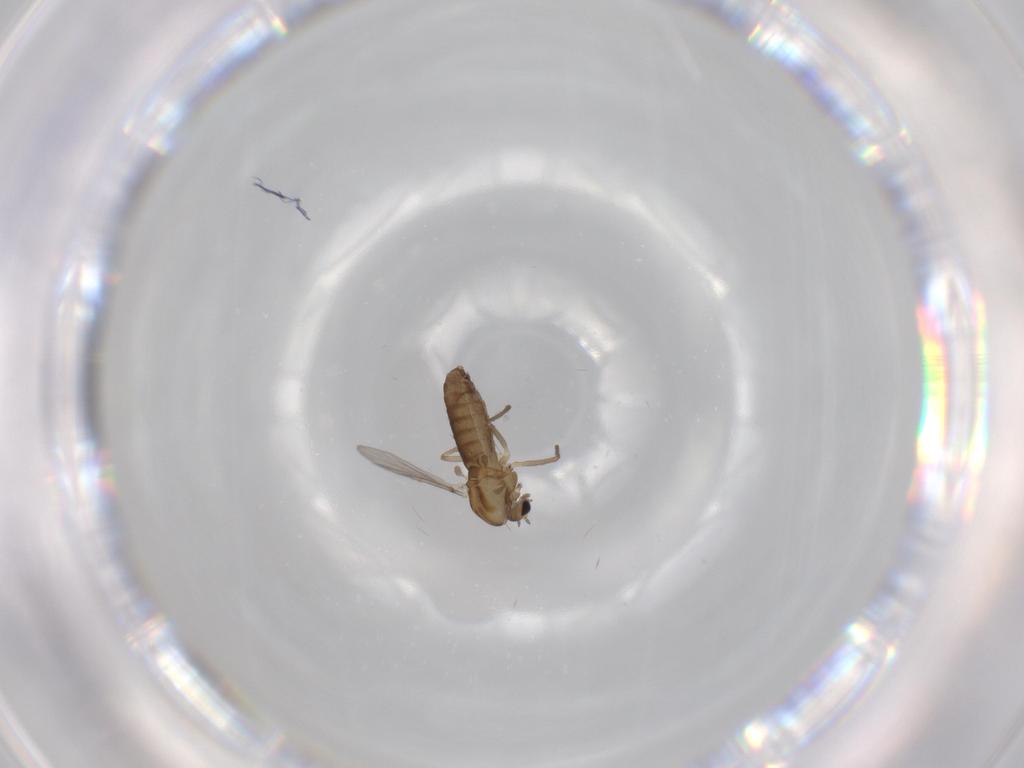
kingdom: Animalia
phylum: Arthropoda
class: Insecta
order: Diptera
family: Chironomidae
